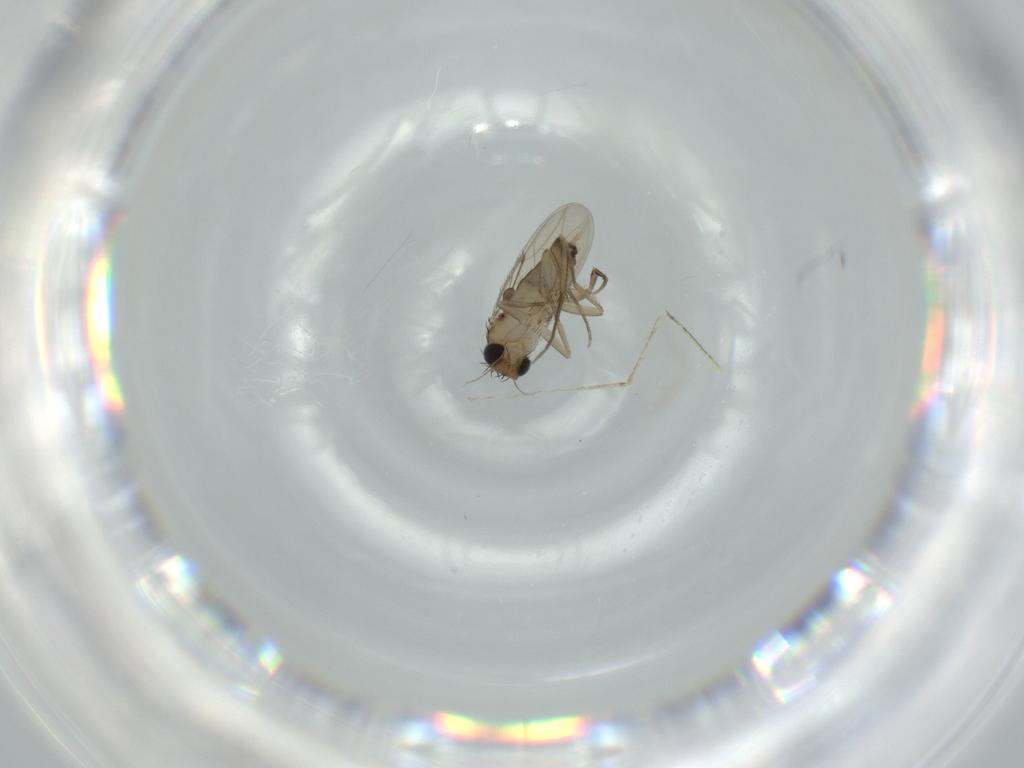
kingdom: Animalia
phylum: Arthropoda
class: Insecta
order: Diptera
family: Phoridae
